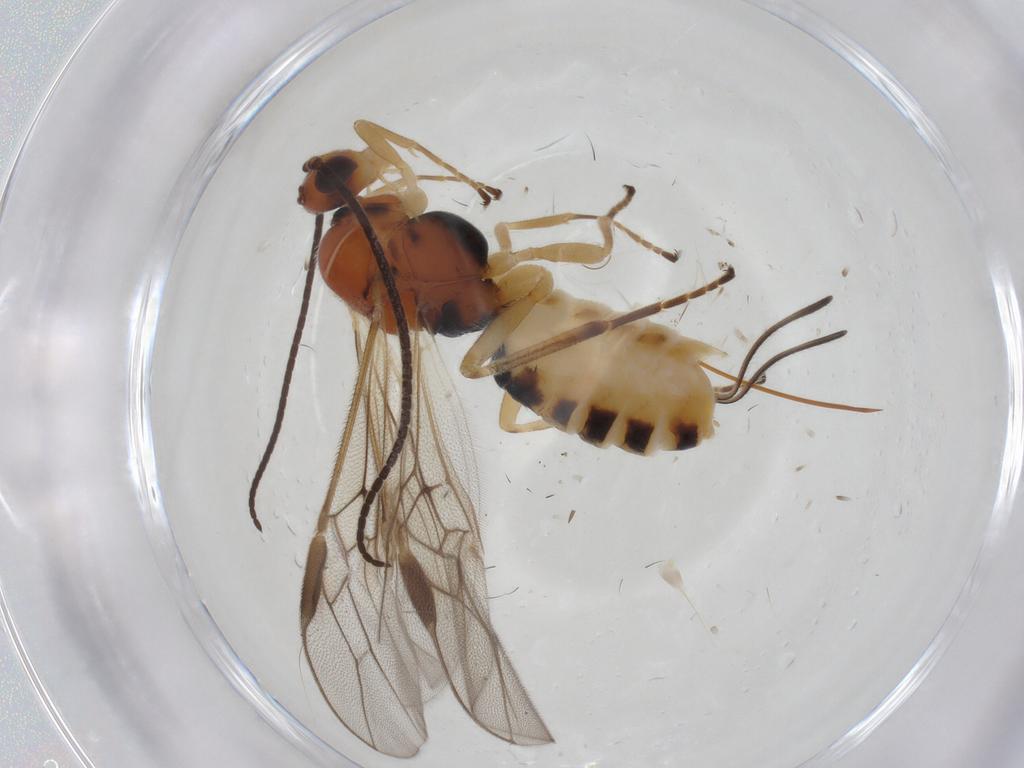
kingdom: Animalia
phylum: Arthropoda
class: Insecta
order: Hymenoptera
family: Braconidae
